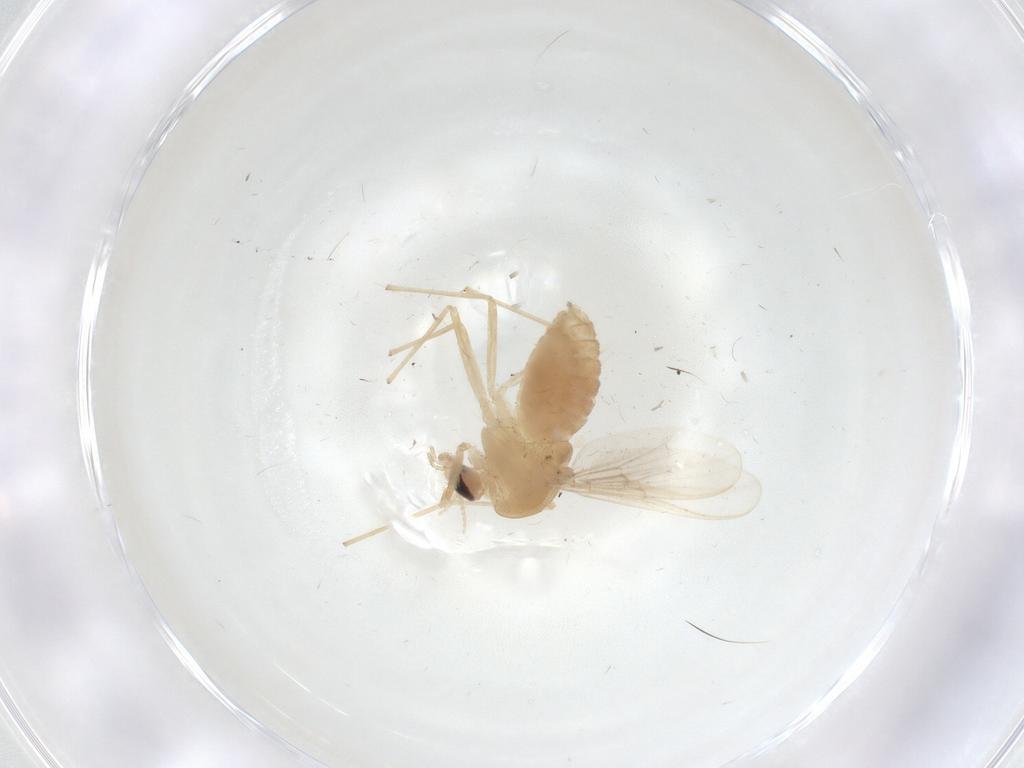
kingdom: Animalia
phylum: Arthropoda
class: Insecta
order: Diptera
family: Chironomidae
